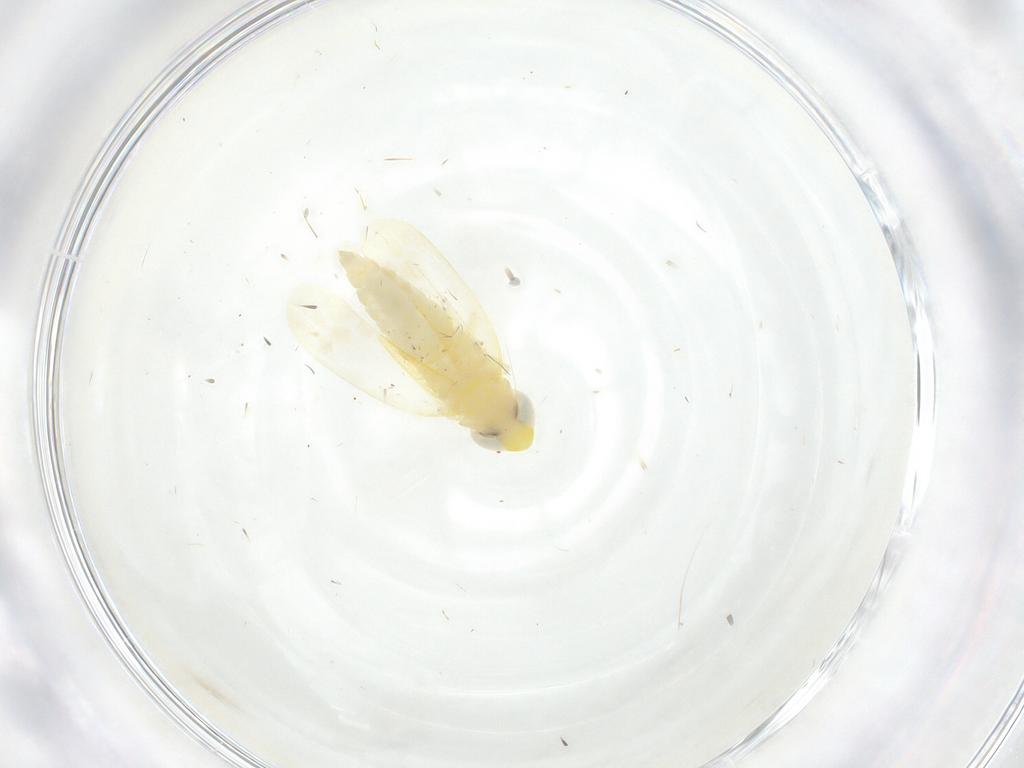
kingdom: Animalia
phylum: Arthropoda
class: Insecta
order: Hemiptera
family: Cicadellidae
